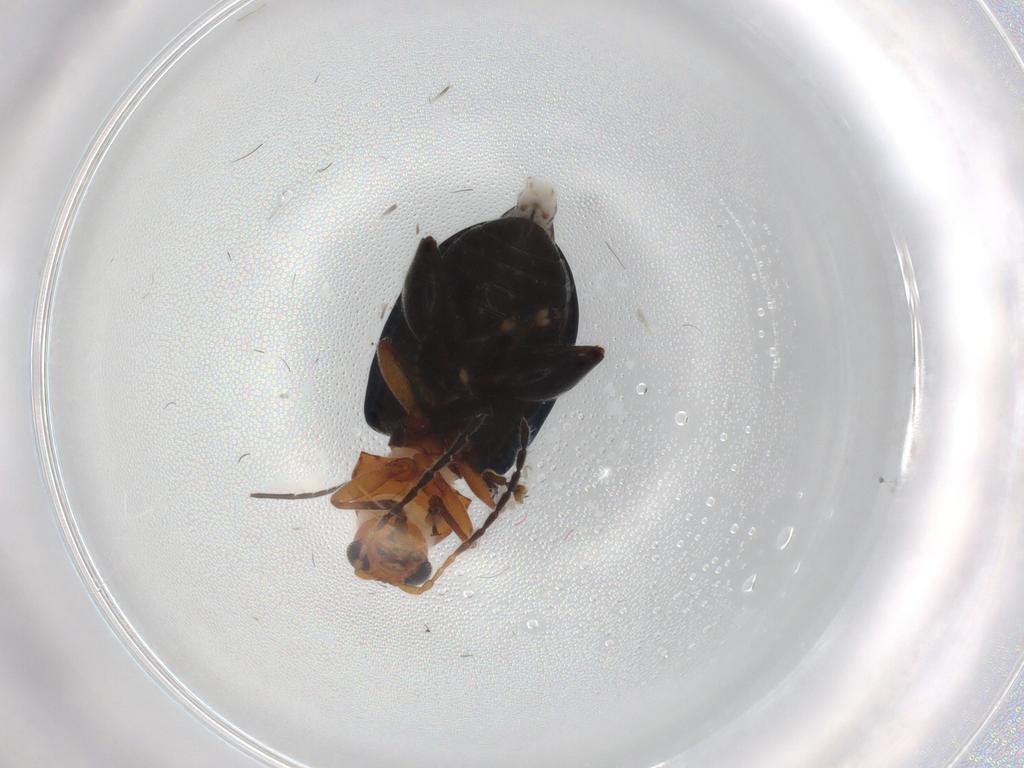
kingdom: Animalia
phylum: Arthropoda
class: Insecta
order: Coleoptera
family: Chrysomelidae
